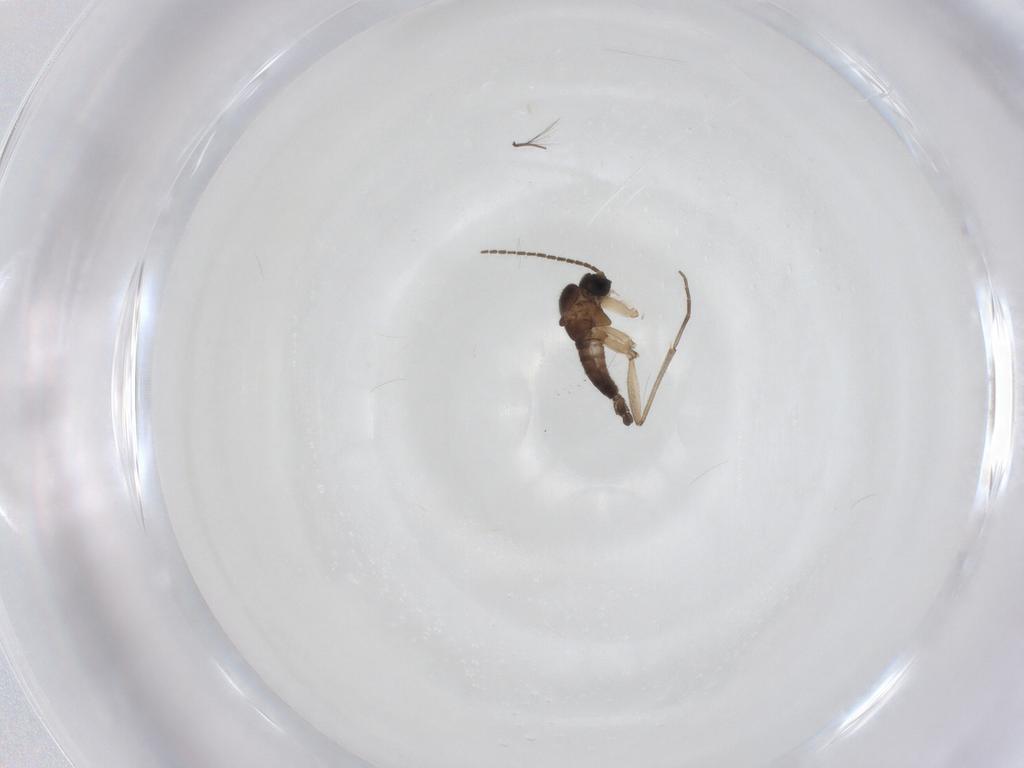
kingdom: Animalia
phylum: Arthropoda
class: Insecta
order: Diptera
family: Sciaridae
